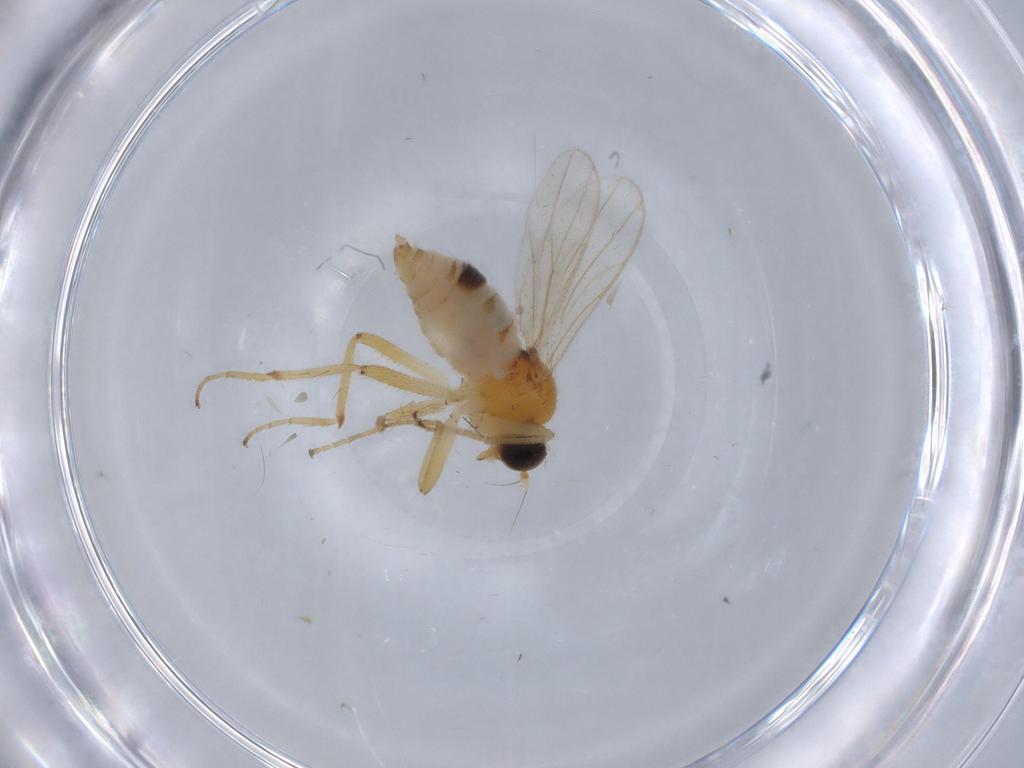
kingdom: Animalia
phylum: Arthropoda
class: Insecta
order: Diptera
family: Hybotidae
